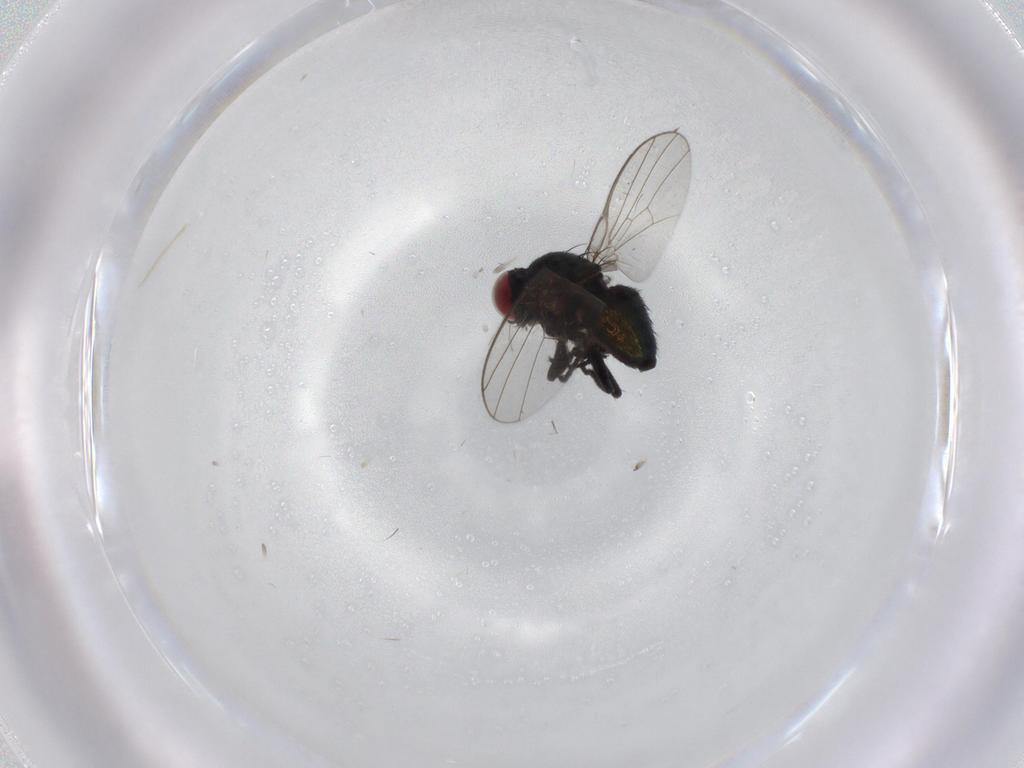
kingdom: Animalia
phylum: Arthropoda
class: Insecta
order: Diptera
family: Agromyzidae
